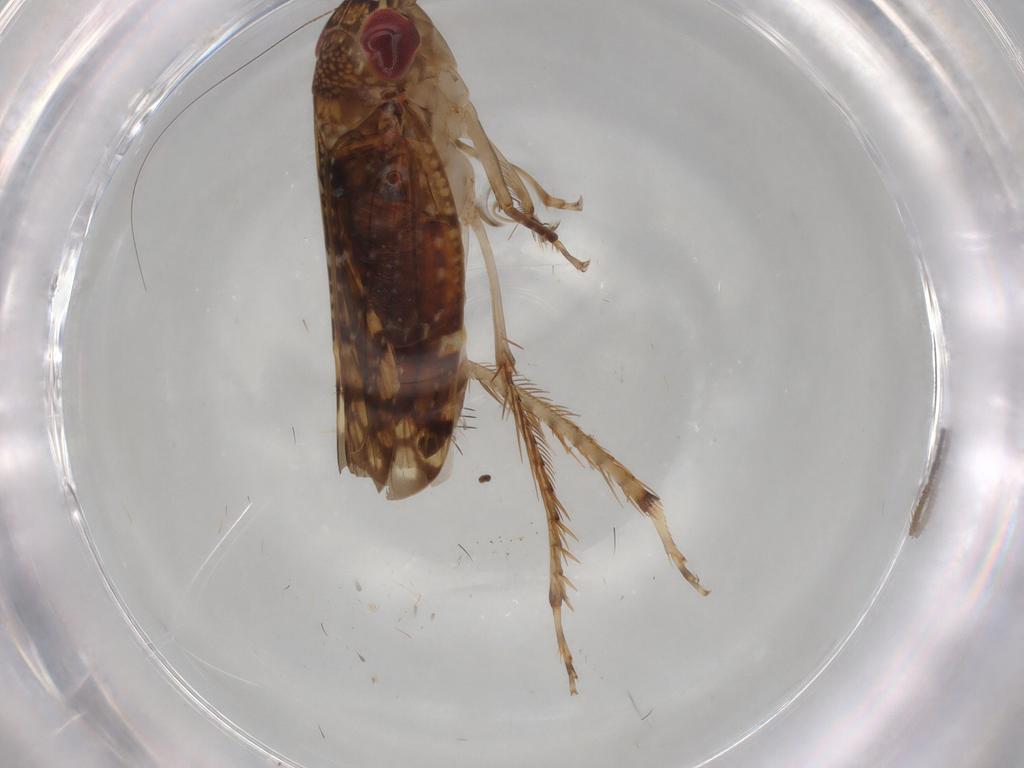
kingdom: Animalia
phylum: Arthropoda
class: Insecta
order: Hemiptera
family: Cicadellidae
